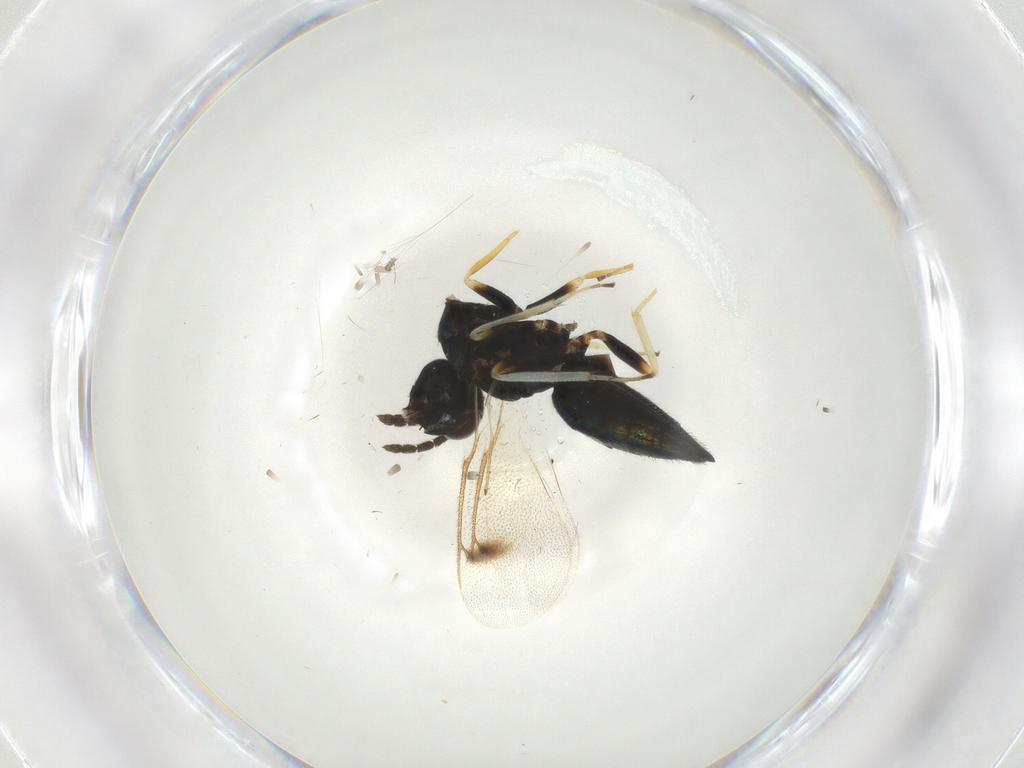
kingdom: Animalia
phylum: Arthropoda
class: Insecta
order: Hymenoptera
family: Eulophidae
